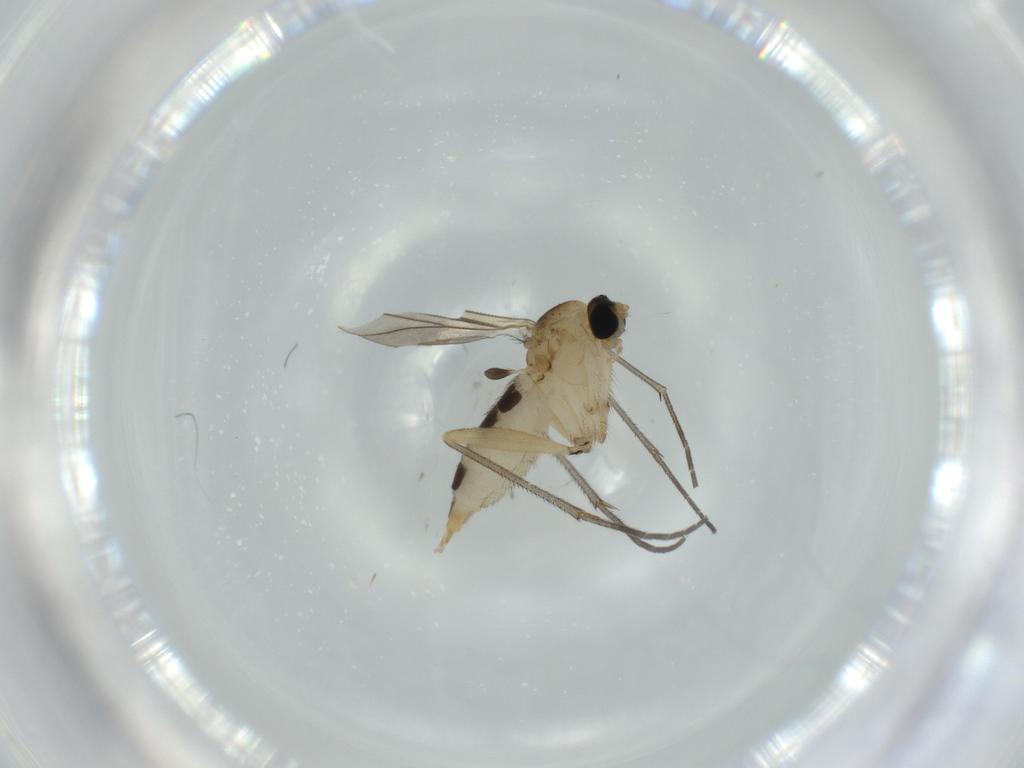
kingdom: Animalia
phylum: Arthropoda
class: Insecta
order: Diptera
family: Sciaridae
